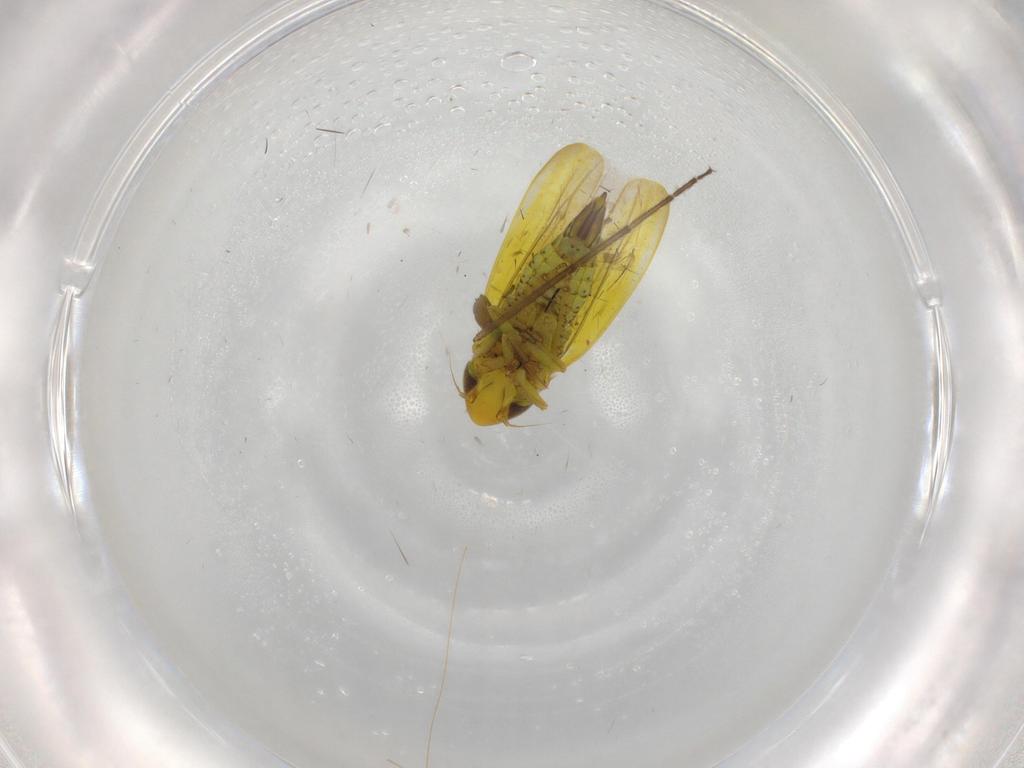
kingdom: Animalia
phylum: Arthropoda
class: Insecta
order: Hemiptera
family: Cicadellidae
